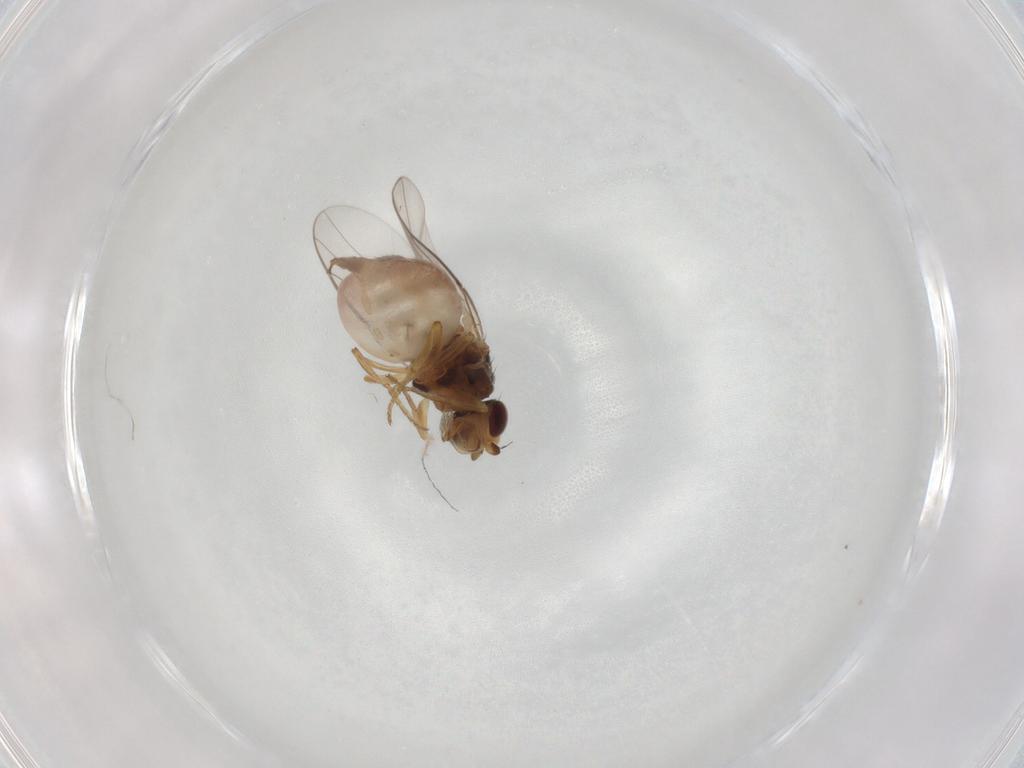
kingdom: Animalia
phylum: Arthropoda
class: Insecta
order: Diptera
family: Chloropidae
